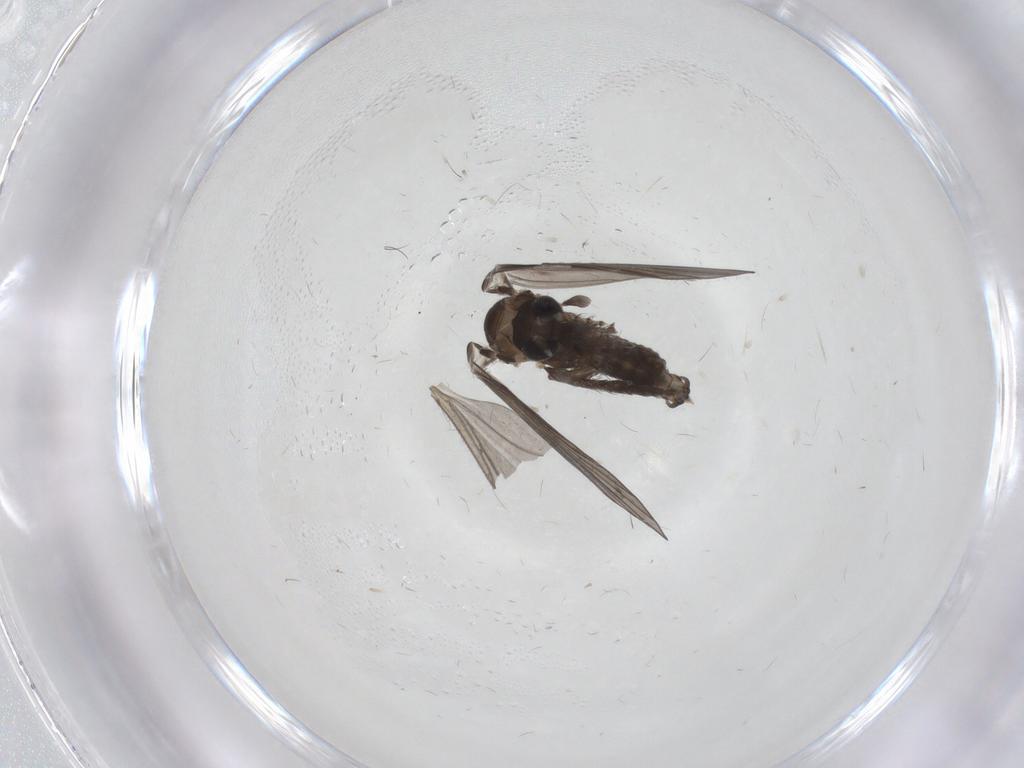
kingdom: Animalia
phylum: Arthropoda
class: Insecta
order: Diptera
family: Psychodidae
